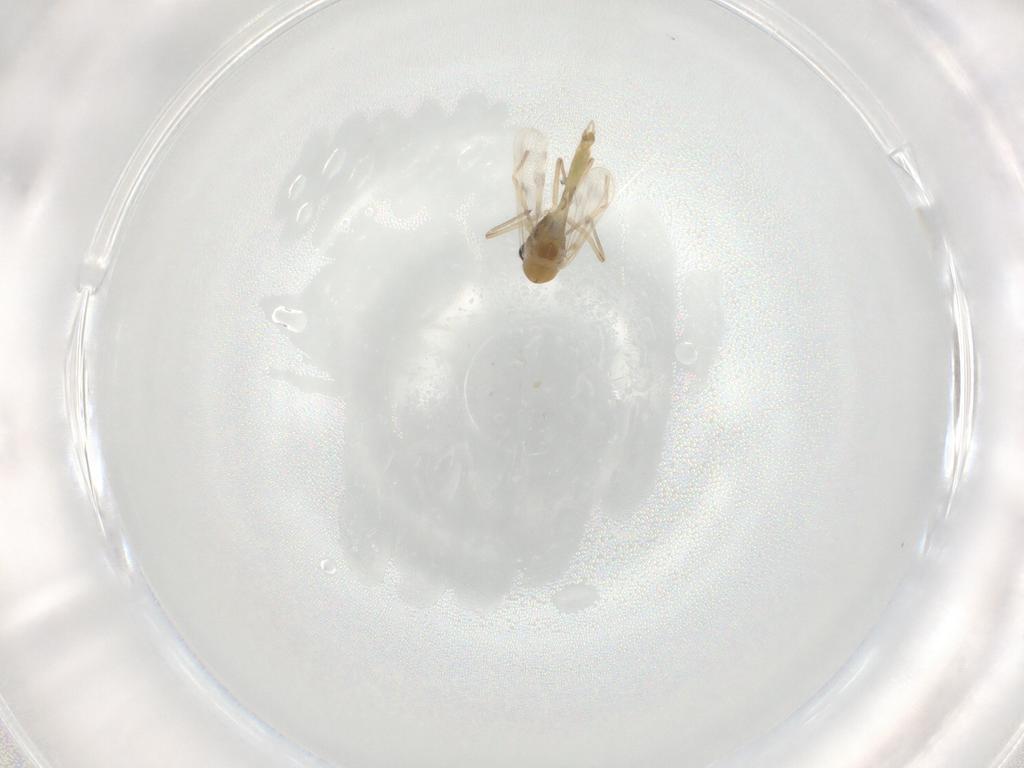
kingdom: Animalia
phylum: Arthropoda
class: Insecta
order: Diptera
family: Chironomidae
